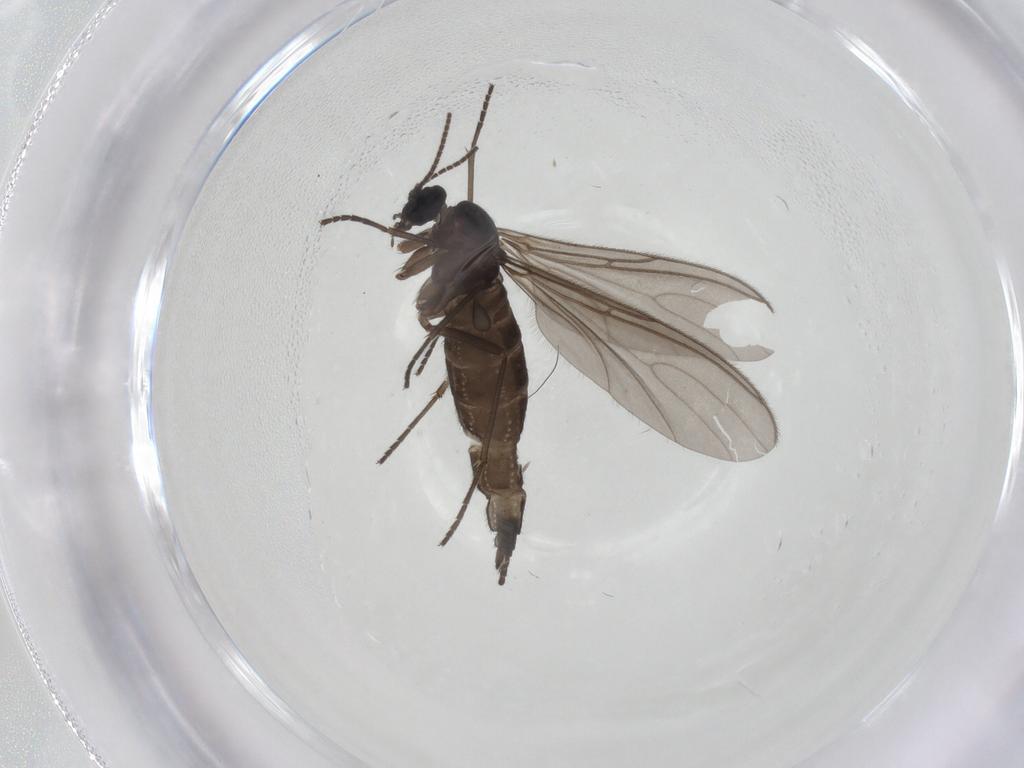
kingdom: Animalia
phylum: Arthropoda
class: Insecta
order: Diptera
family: Sciaridae
